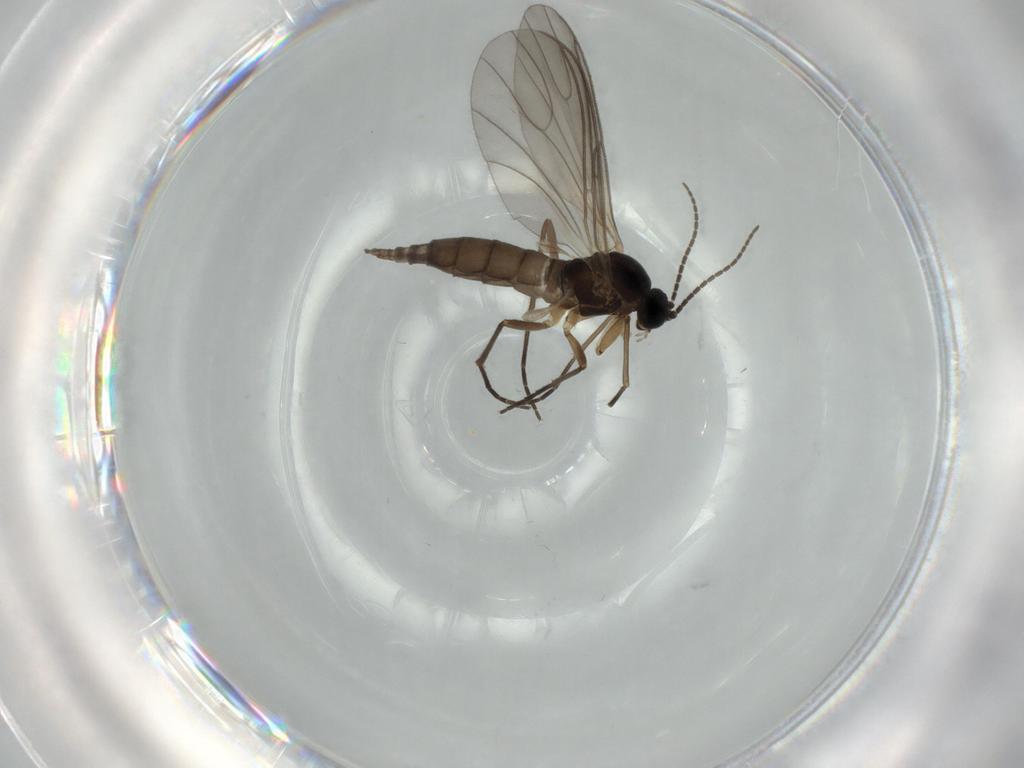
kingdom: Animalia
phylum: Arthropoda
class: Insecta
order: Diptera
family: Sciaridae
